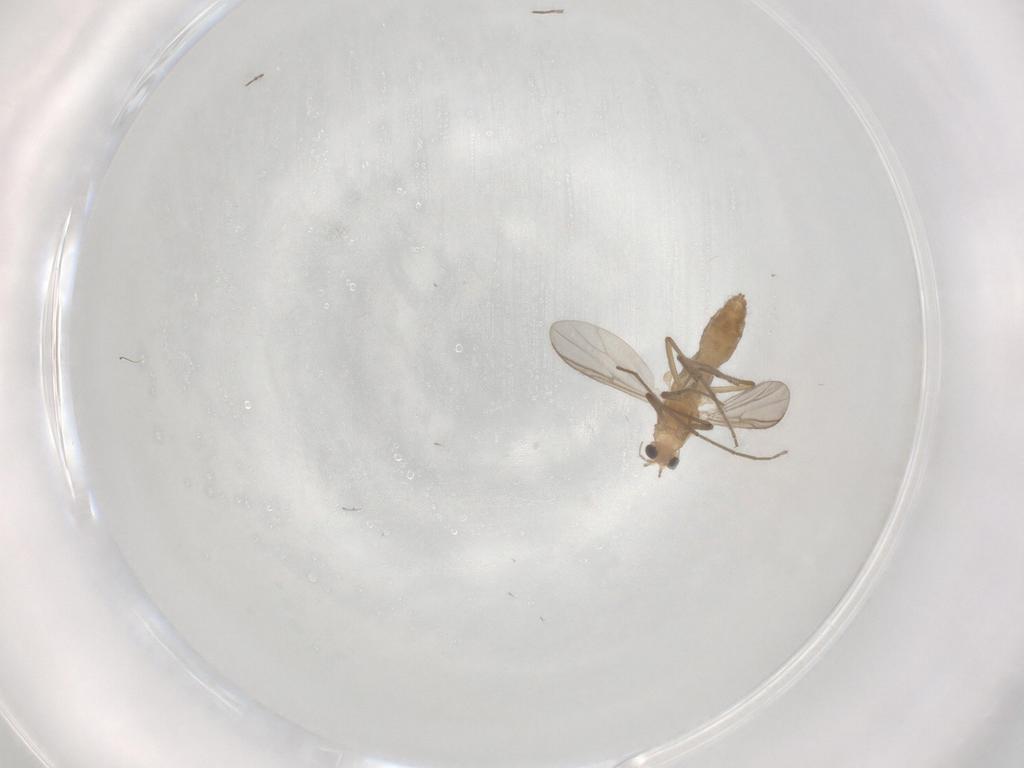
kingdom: Animalia
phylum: Arthropoda
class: Insecta
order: Diptera
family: Chironomidae
